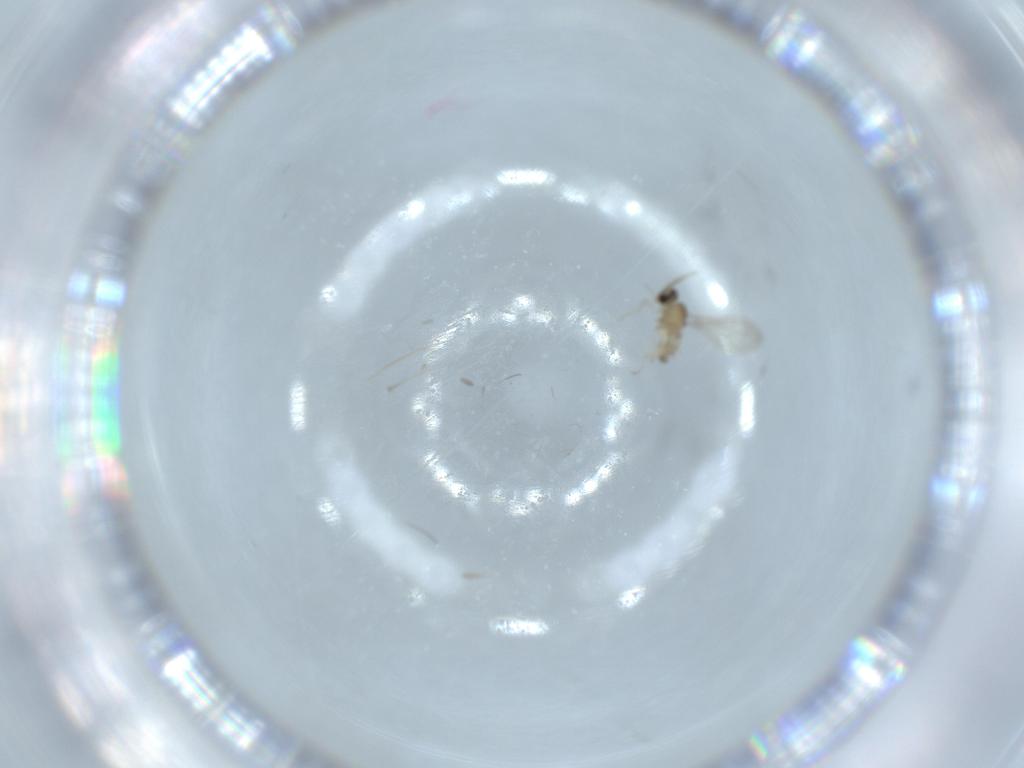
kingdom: Animalia
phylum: Arthropoda
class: Insecta
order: Diptera
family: Cecidomyiidae
